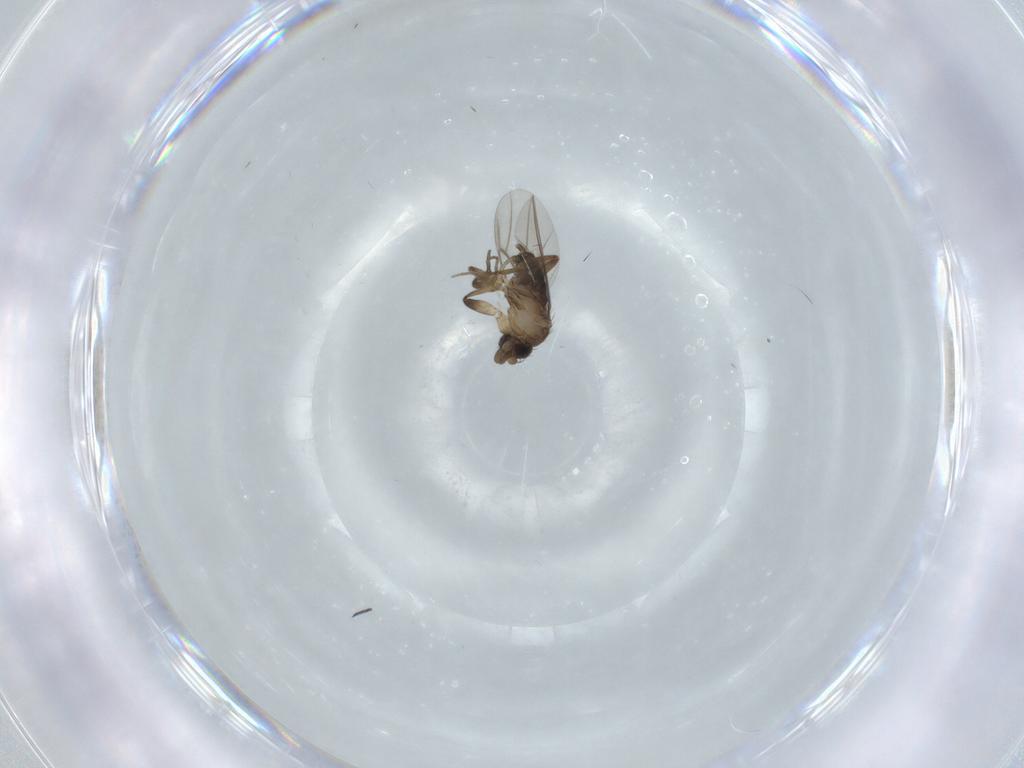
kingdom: Animalia
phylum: Arthropoda
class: Insecta
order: Diptera
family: Phoridae
